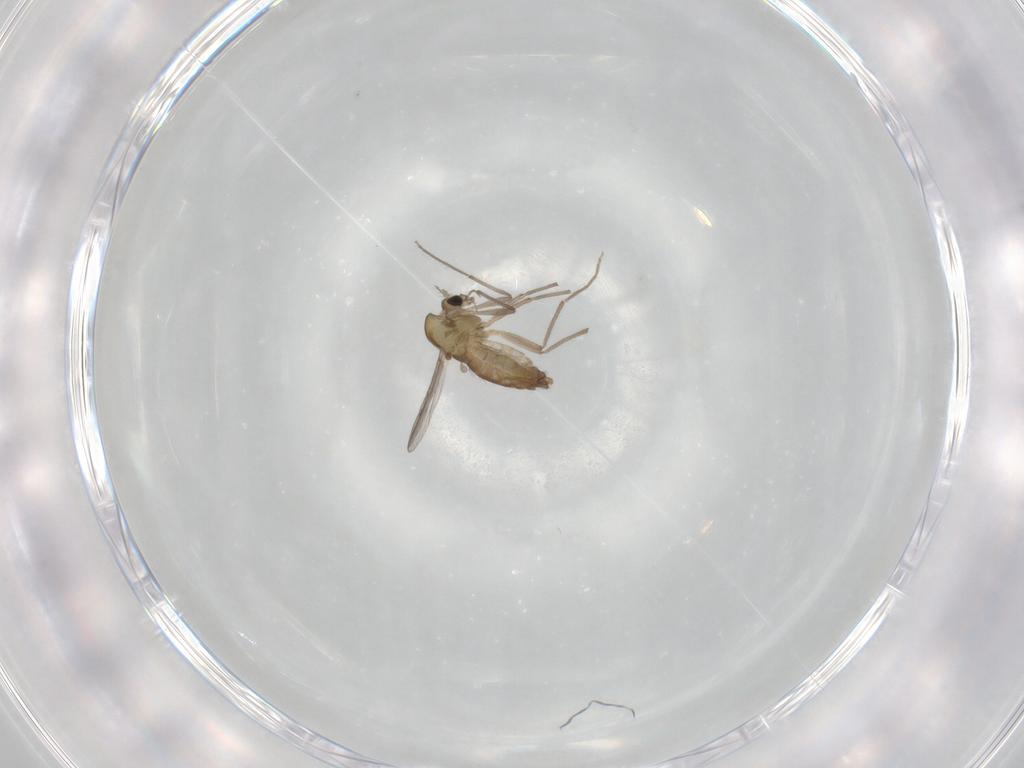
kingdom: Animalia
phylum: Arthropoda
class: Insecta
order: Diptera
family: Chironomidae
